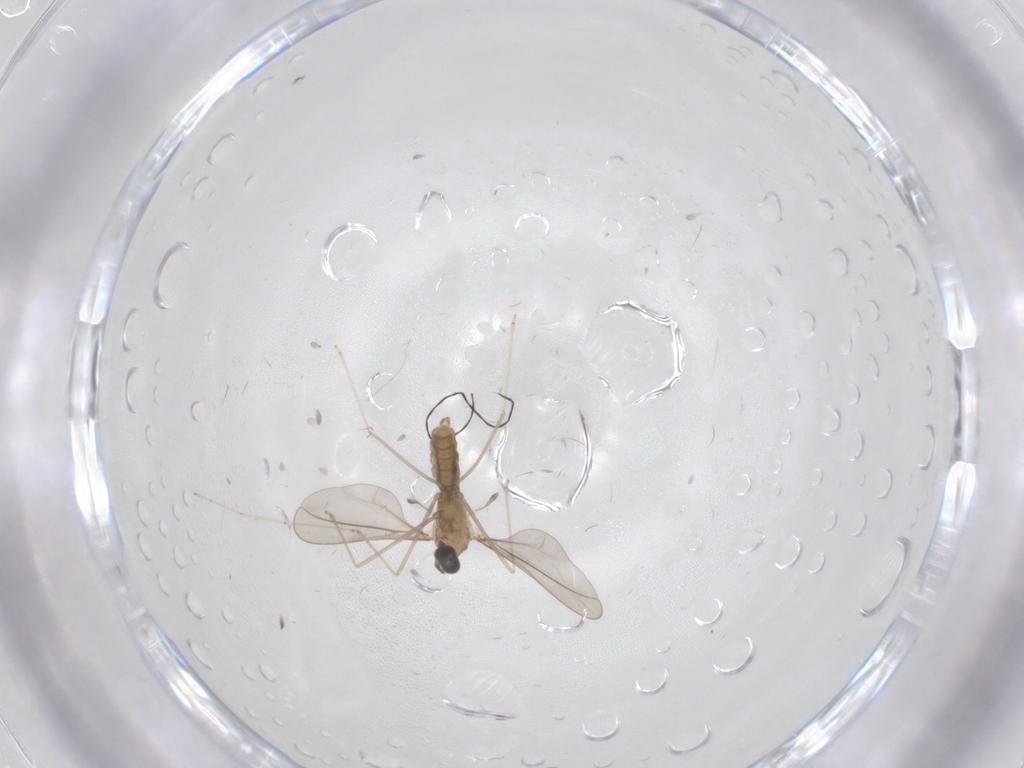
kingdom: Animalia
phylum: Arthropoda
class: Insecta
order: Diptera
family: Cecidomyiidae
